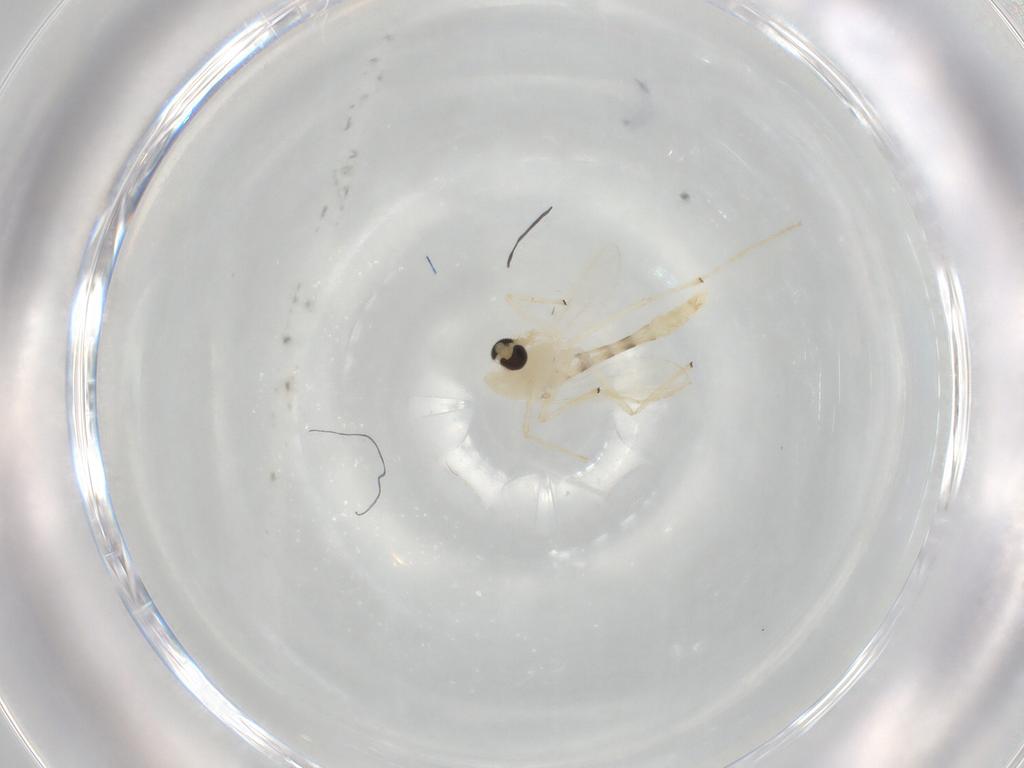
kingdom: Animalia
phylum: Arthropoda
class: Insecta
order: Diptera
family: Chironomidae
